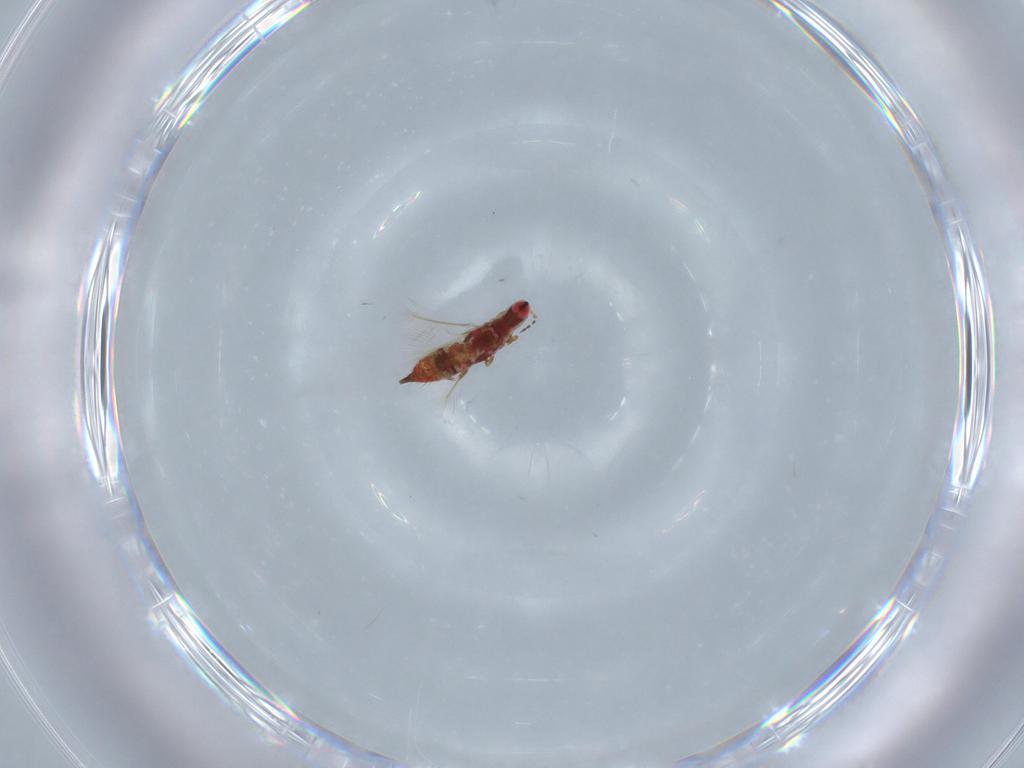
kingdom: Animalia
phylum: Arthropoda
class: Insecta
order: Thysanoptera
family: Phlaeothripidae
